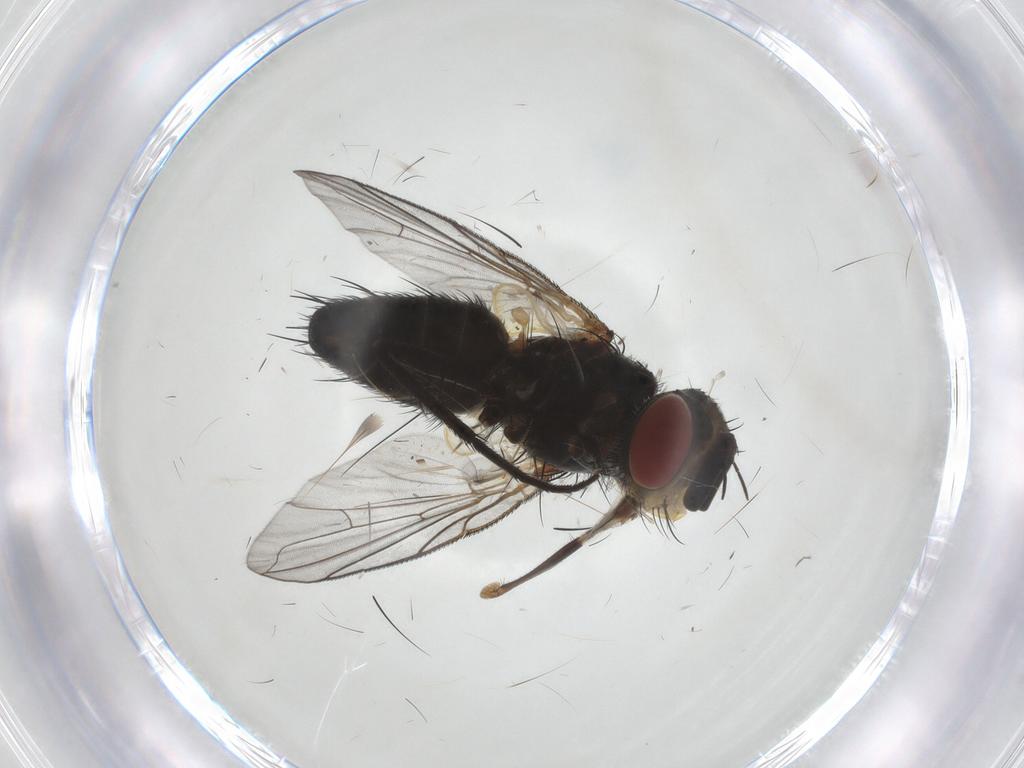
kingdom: Animalia
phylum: Arthropoda
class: Insecta
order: Diptera
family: Tachinidae
